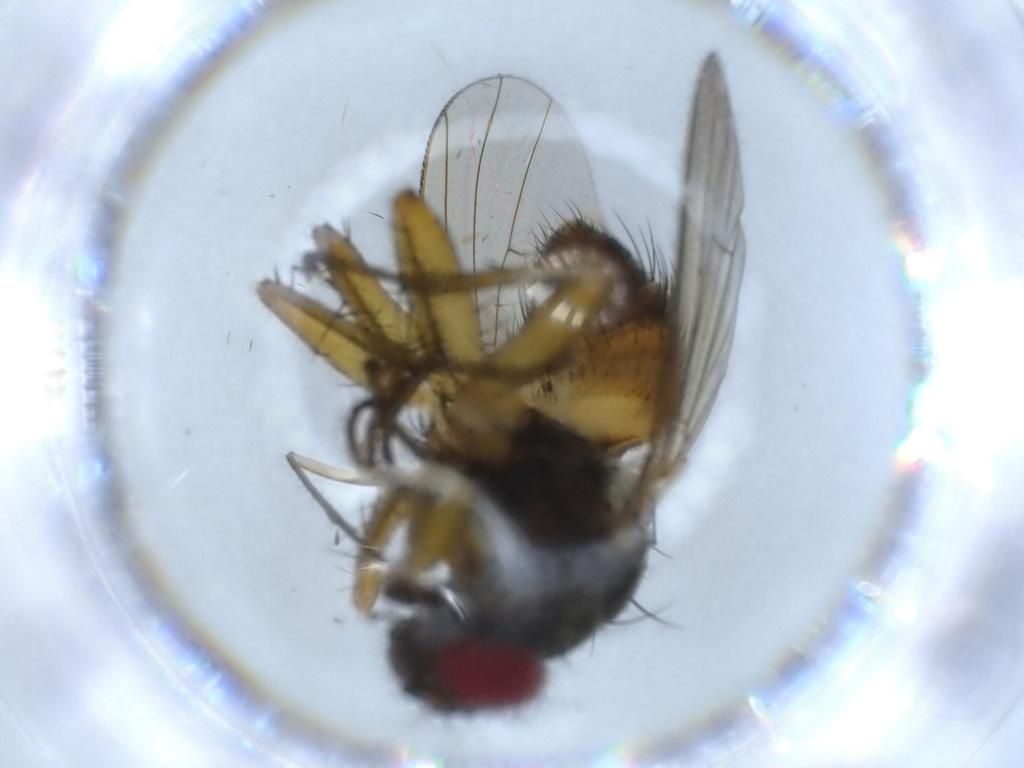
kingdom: Animalia
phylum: Arthropoda
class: Insecta
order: Diptera
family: Muscidae
